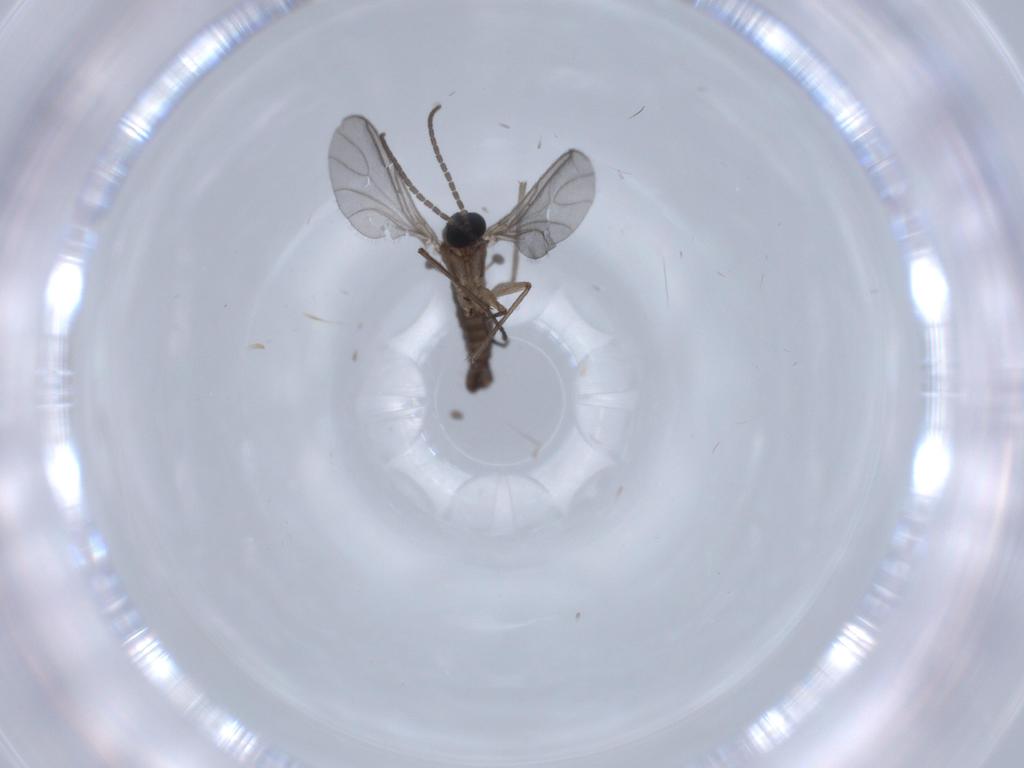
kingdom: Animalia
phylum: Arthropoda
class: Insecta
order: Diptera
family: Sciaridae
